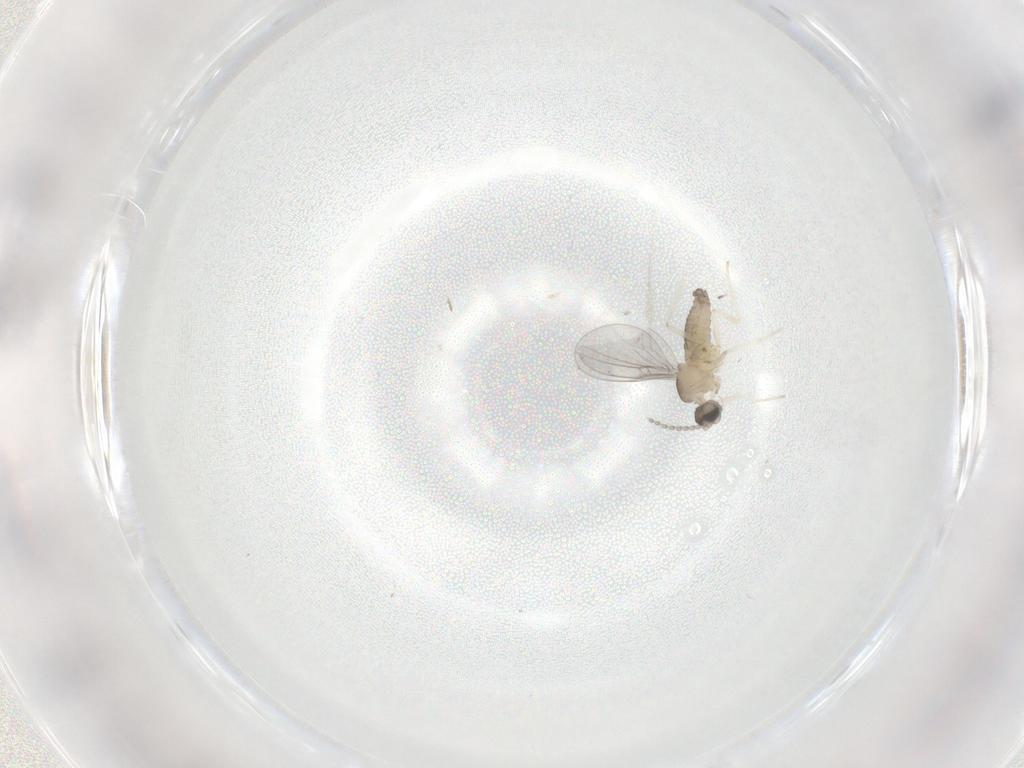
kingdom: Animalia
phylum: Arthropoda
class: Insecta
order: Diptera
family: Cecidomyiidae
